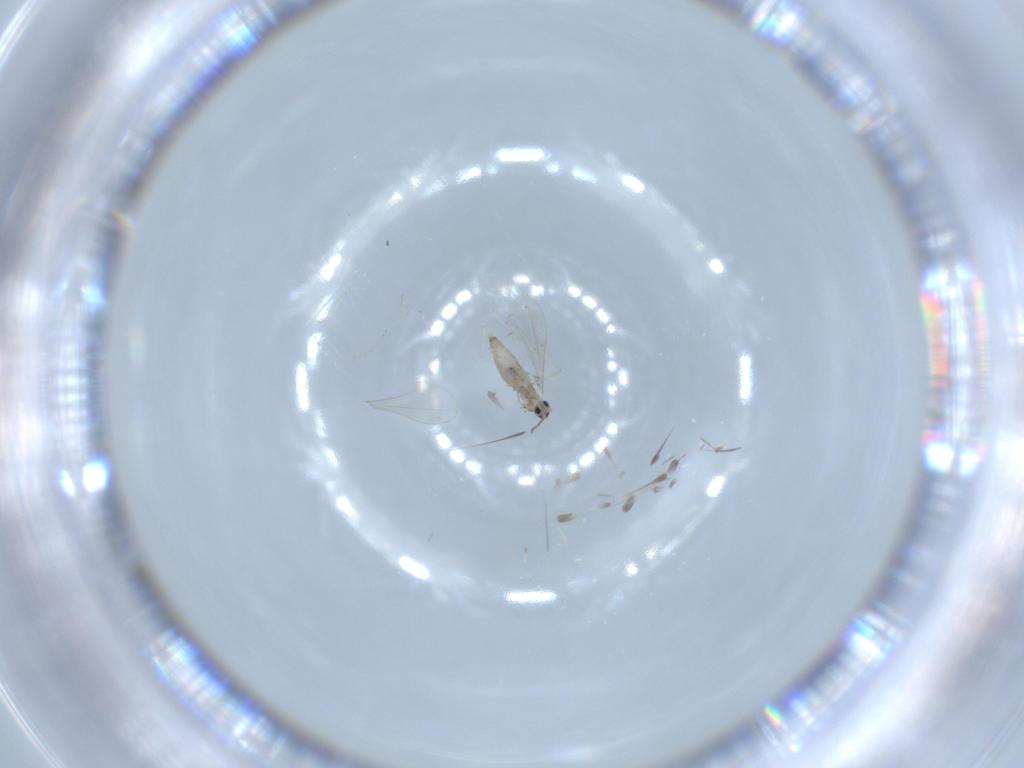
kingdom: Animalia
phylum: Arthropoda
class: Insecta
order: Diptera
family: Cecidomyiidae
